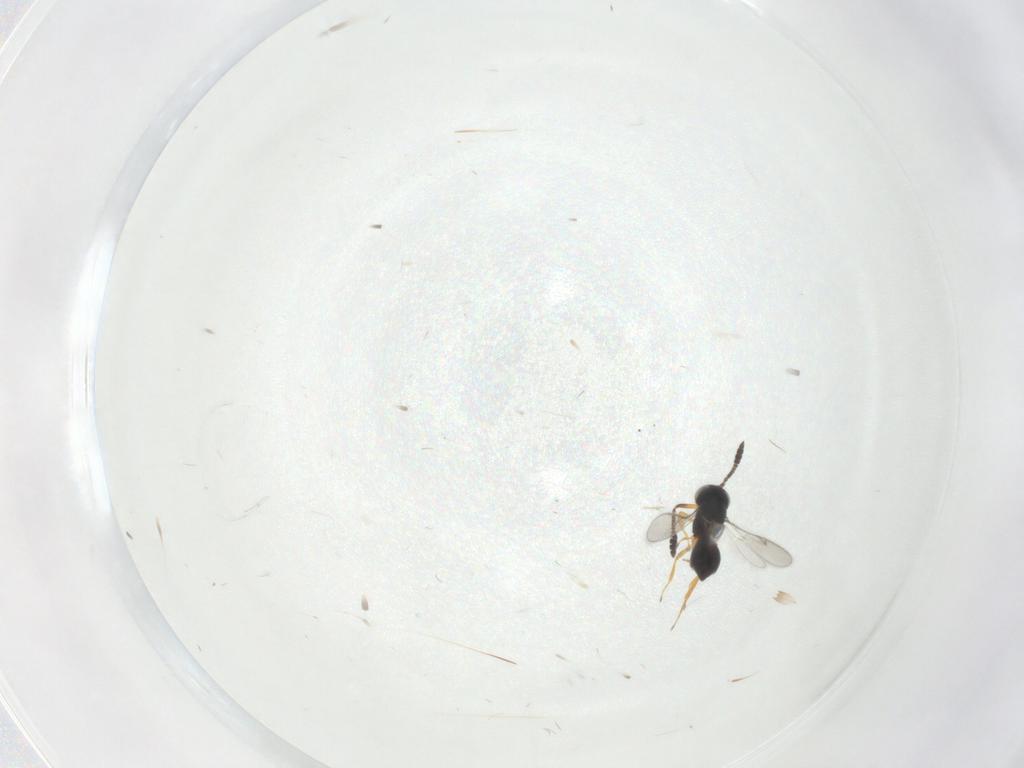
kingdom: Animalia
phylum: Arthropoda
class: Insecta
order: Hymenoptera
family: Scelionidae
